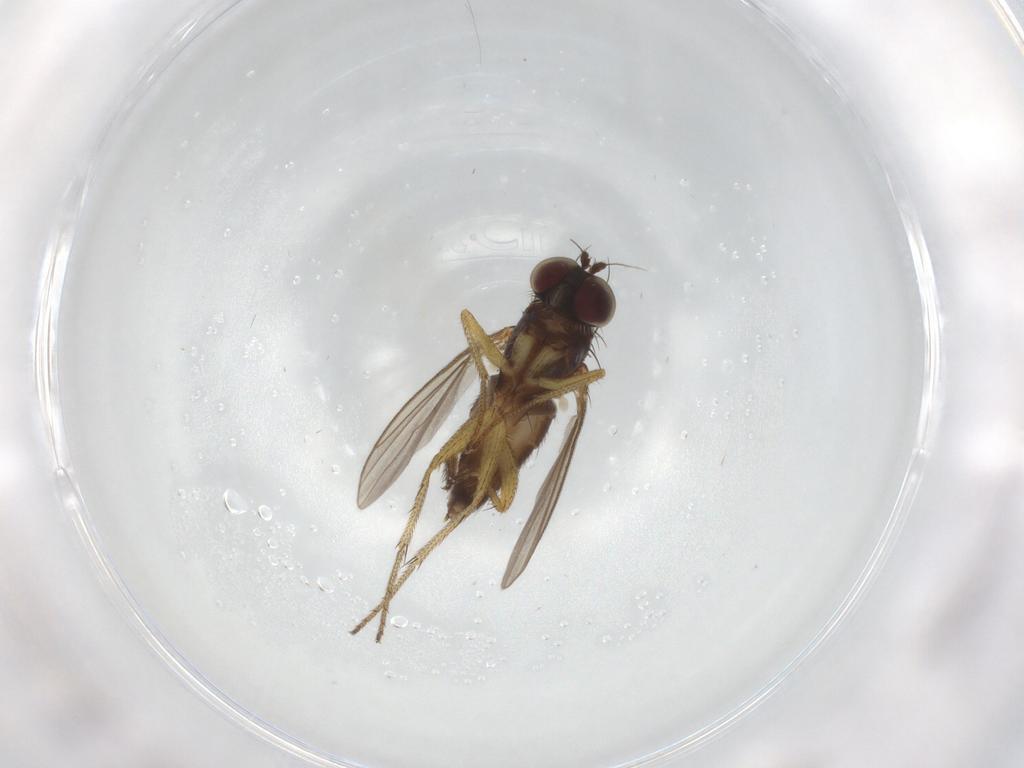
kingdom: Animalia
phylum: Arthropoda
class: Insecta
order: Diptera
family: Dolichopodidae
